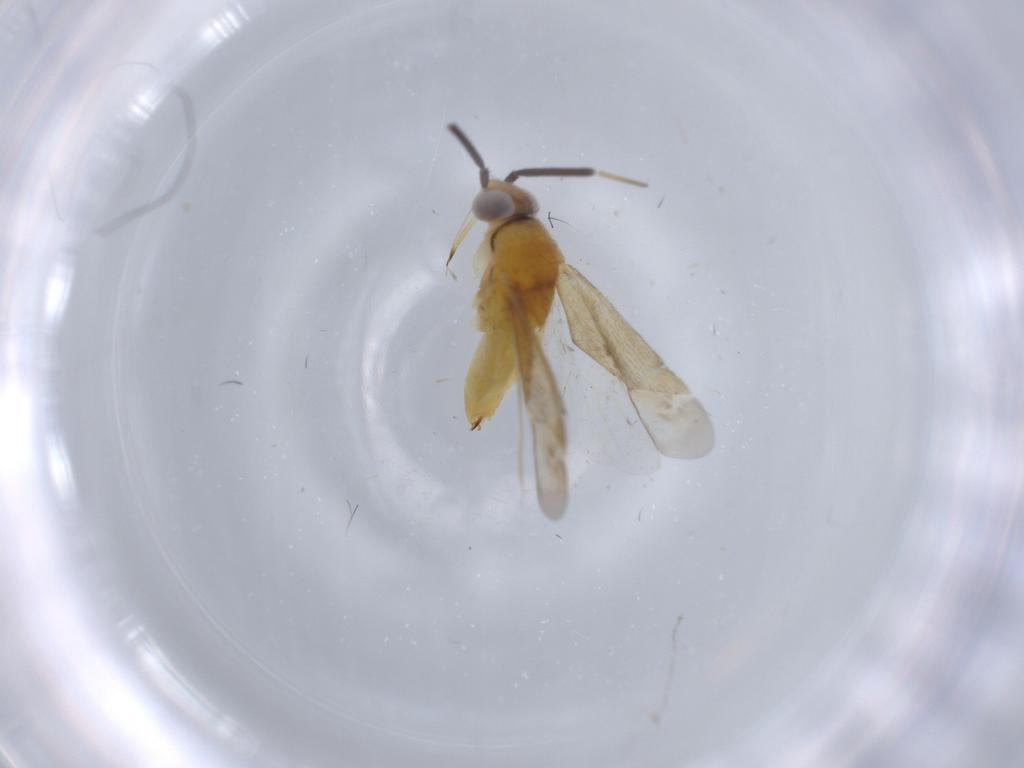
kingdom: Animalia
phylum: Arthropoda
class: Insecta
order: Hemiptera
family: Miridae
